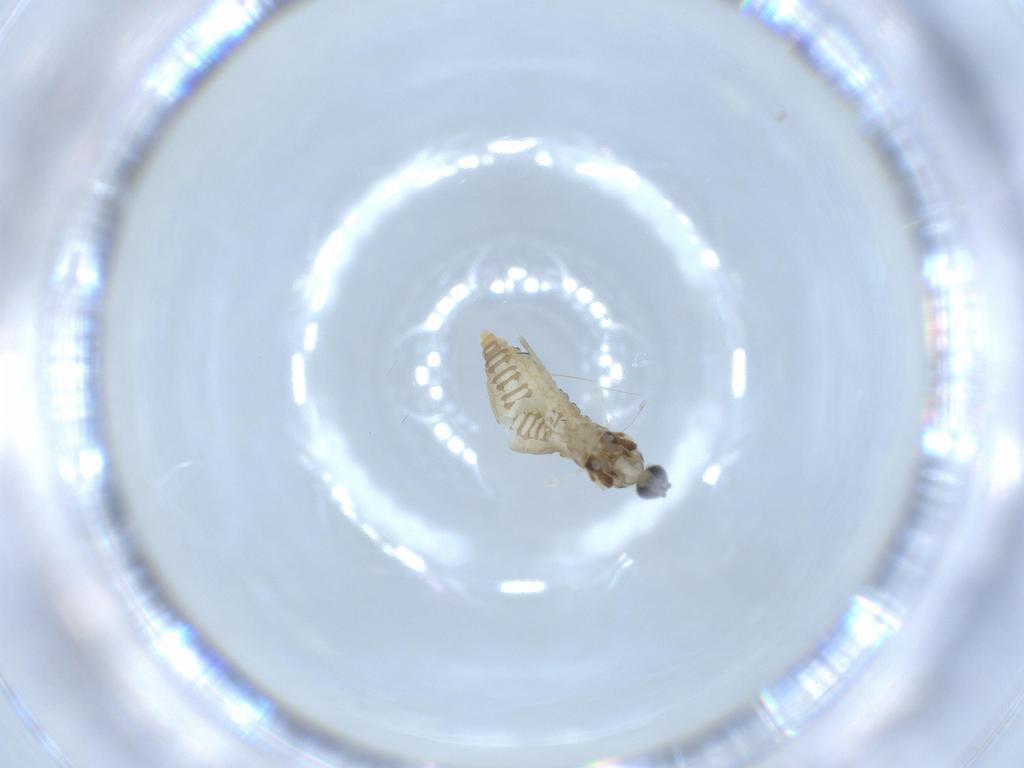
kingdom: Animalia
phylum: Arthropoda
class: Insecta
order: Diptera
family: Cecidomyiidae
